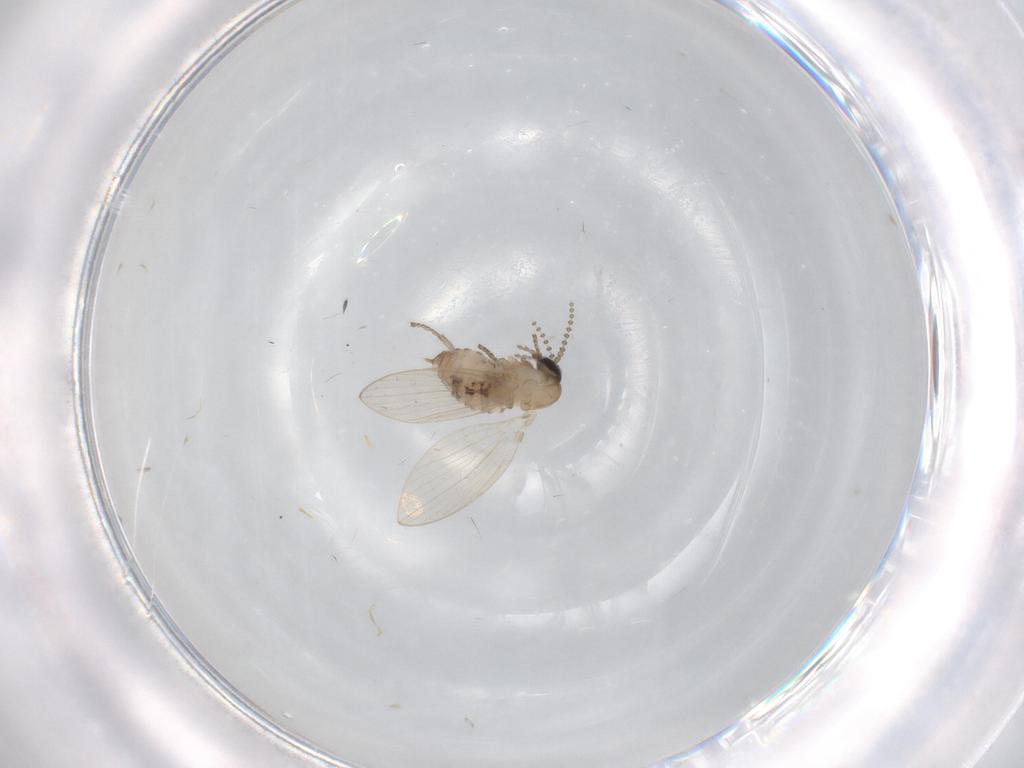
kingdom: Animalia
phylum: Arthropoda
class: Insecta
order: Diptera
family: Psychodidae
